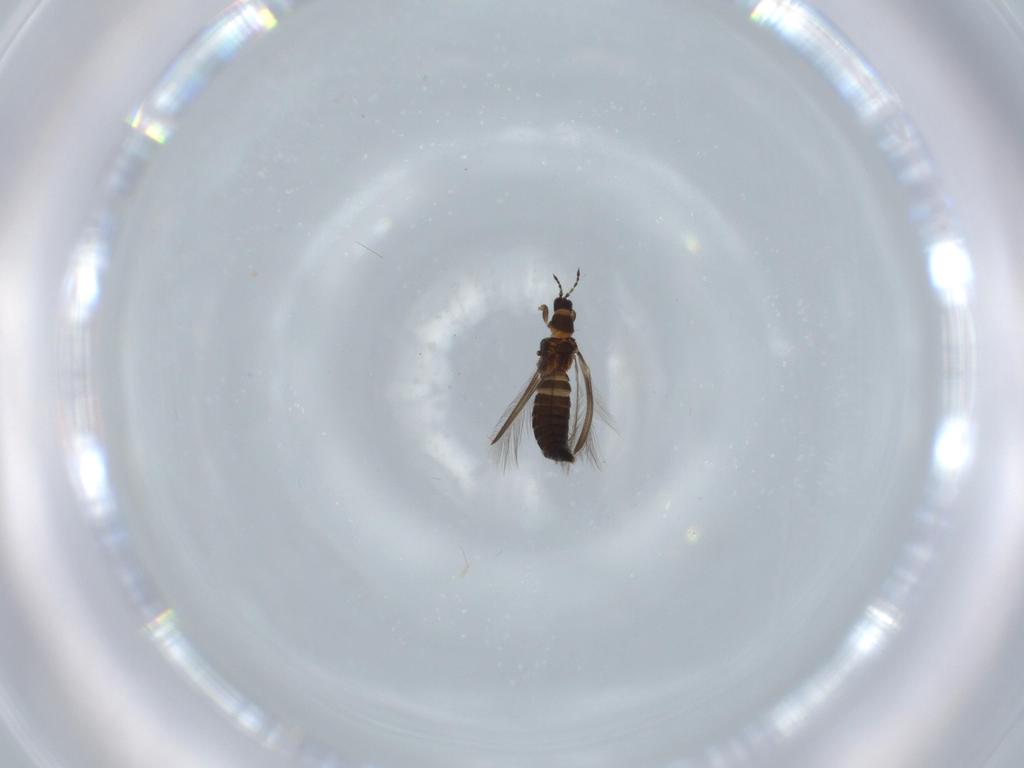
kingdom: Animalia
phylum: Arthropoda
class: Insecta
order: Thysanoptera
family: Thripidae
